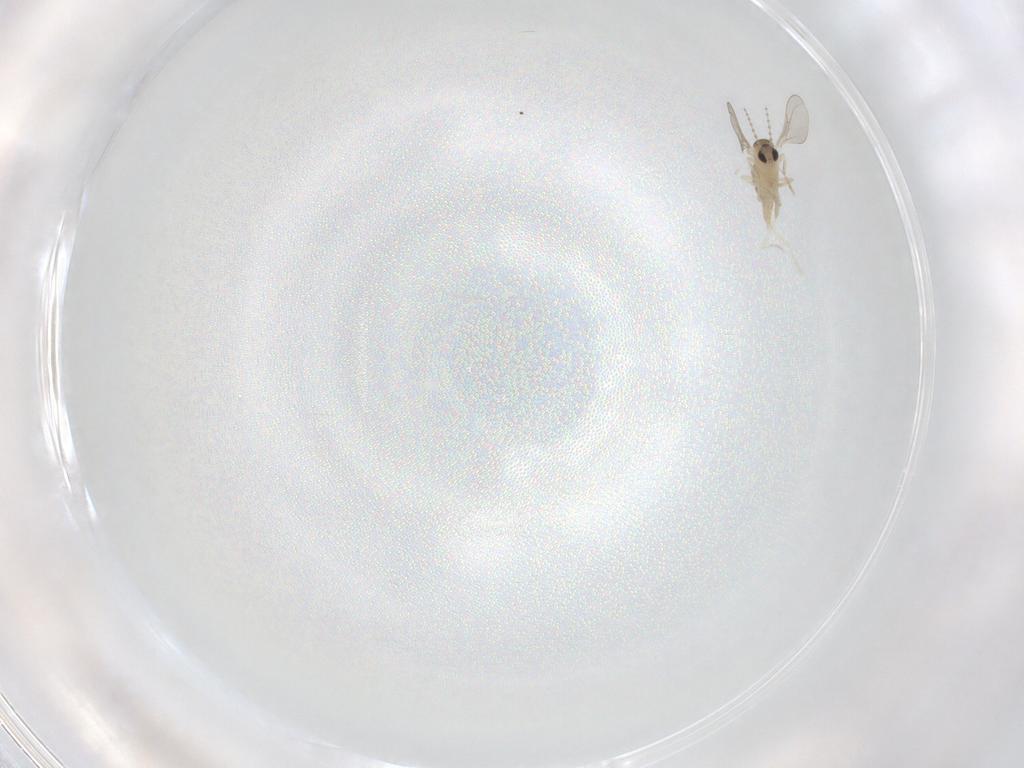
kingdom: Animalia
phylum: Arthropoda
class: Insecta
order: Diptera
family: Cecidomyiidae
